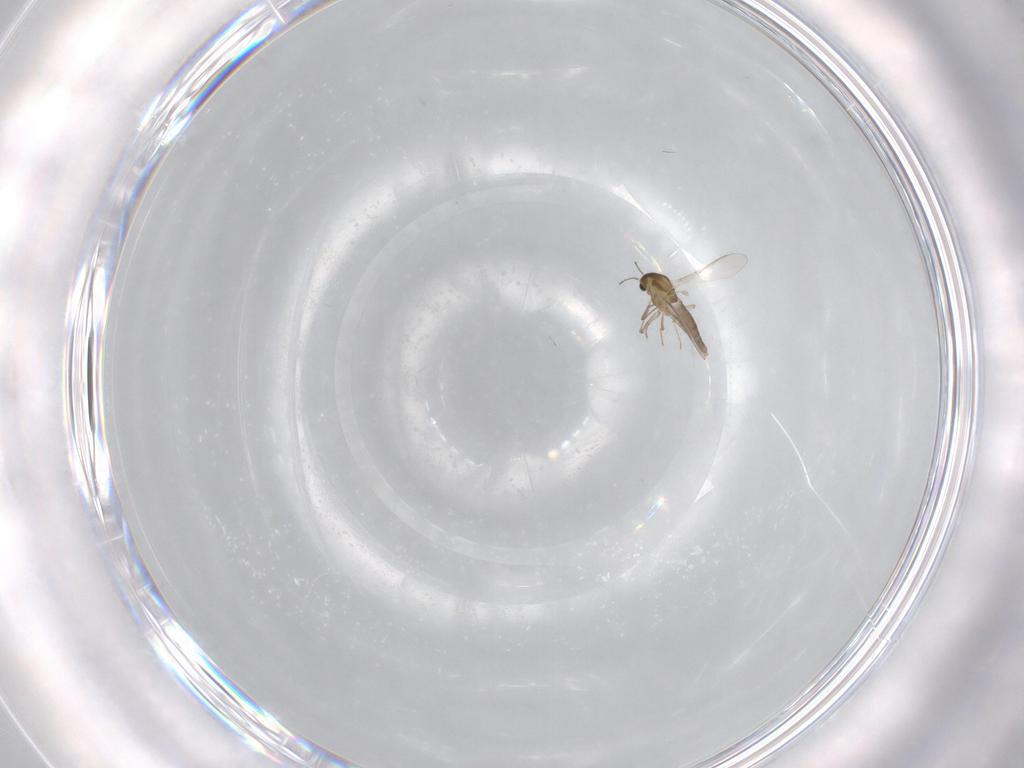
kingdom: Animalia
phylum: Arthropoda
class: Insecta
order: Diptera
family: Chironomidae
